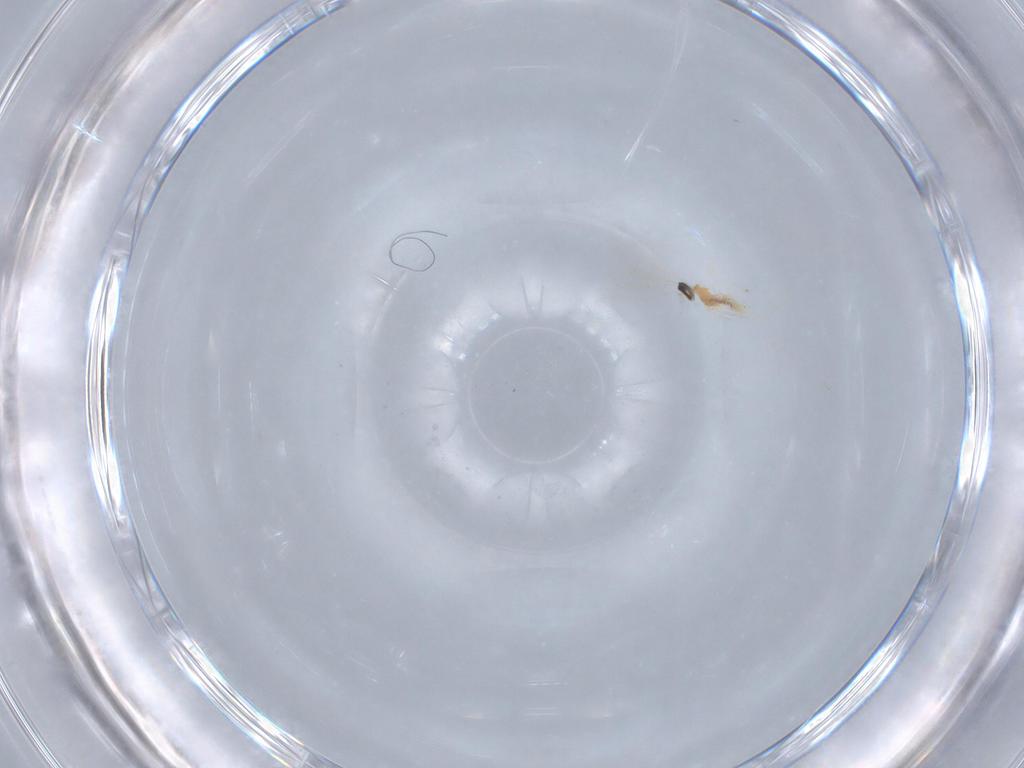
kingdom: Animalia
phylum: Arthropoda
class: Insecta
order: Diptera
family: Cecidomyiidae
